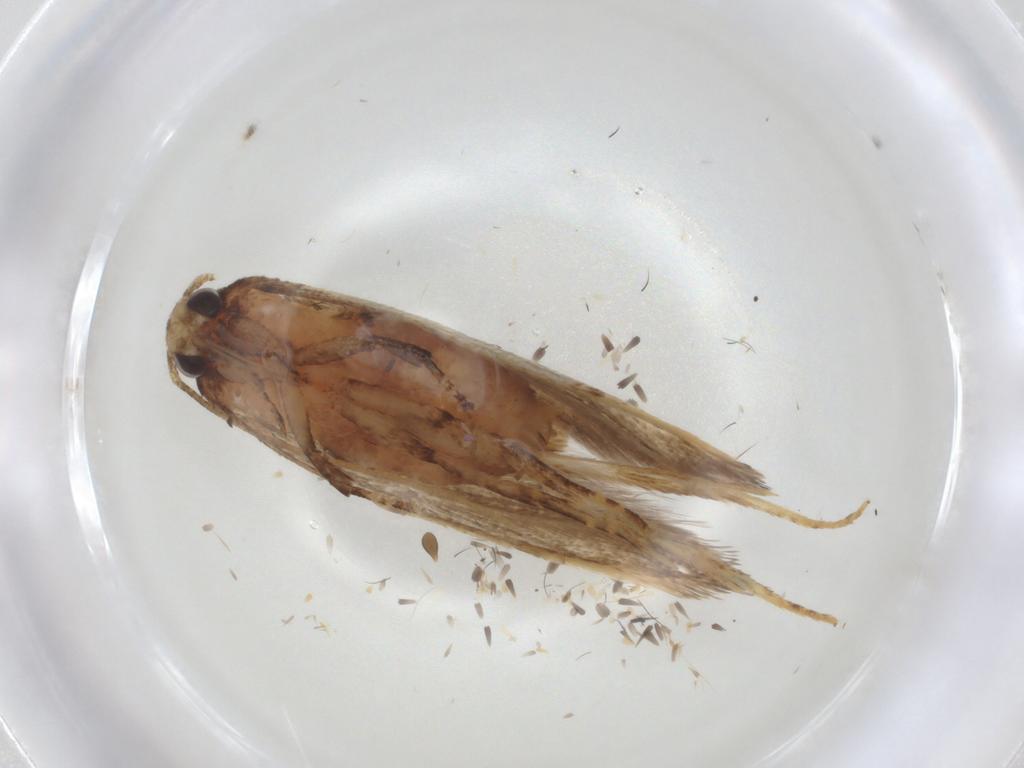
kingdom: Animalia
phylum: Arthropoda
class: Insecta
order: Lepidoptera
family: Oecophoridae
